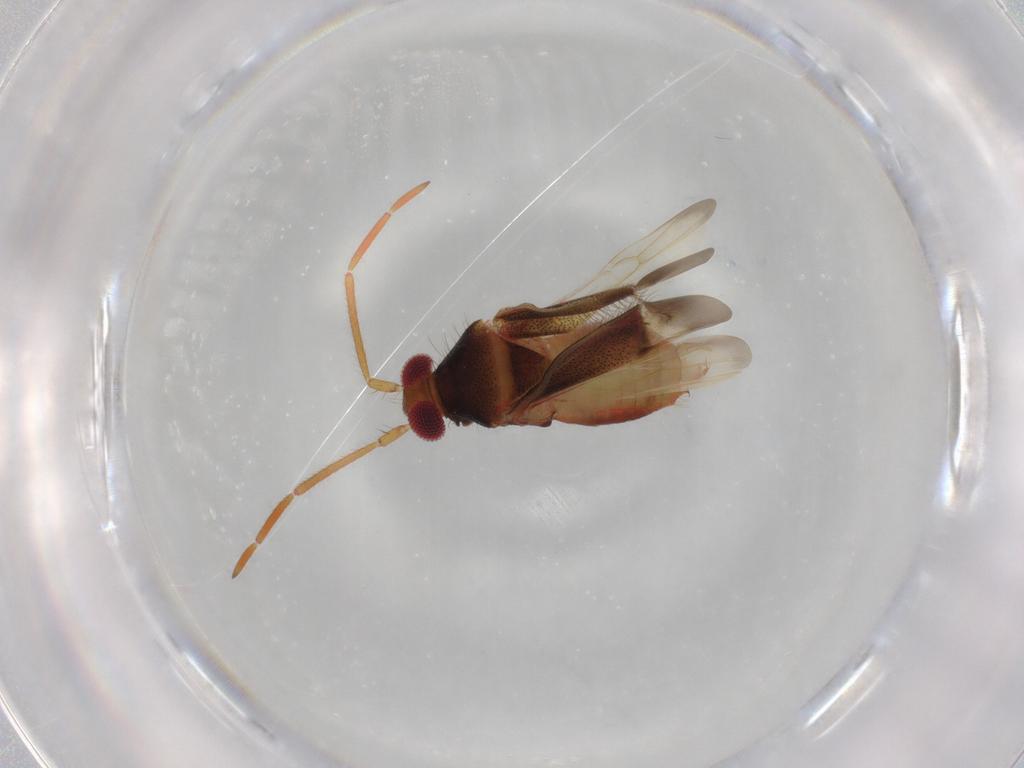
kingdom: Animalia
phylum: Arthropoda
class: Insecta
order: Hemiptera
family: Miridae
